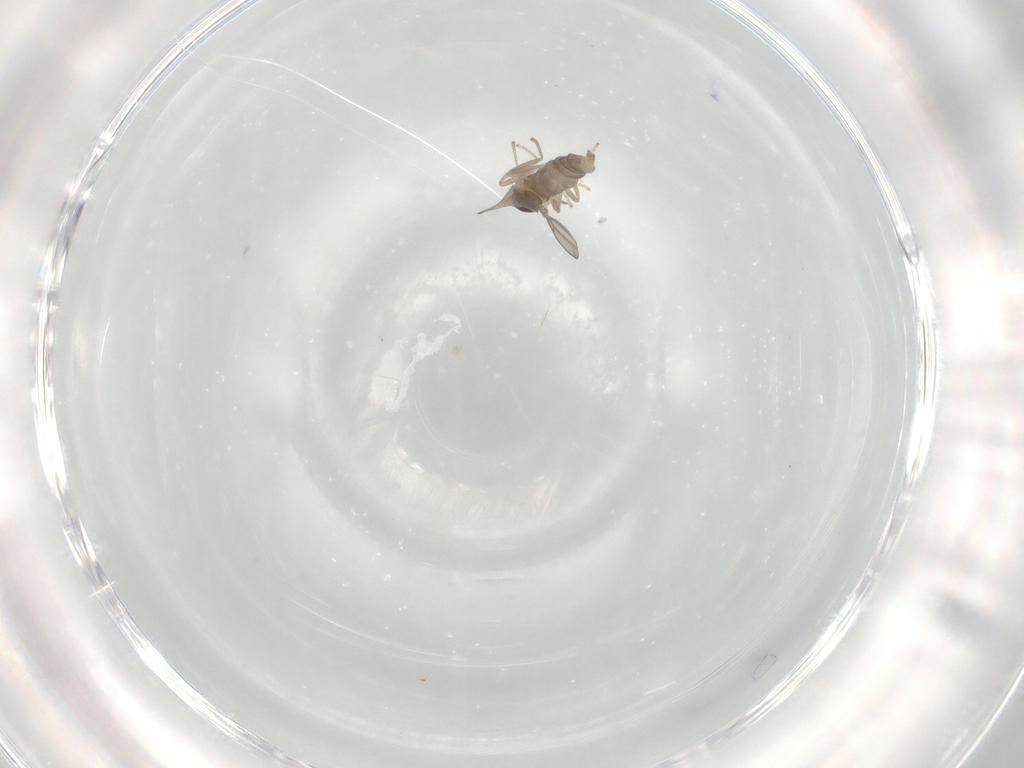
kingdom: Animalia
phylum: Arthropoda
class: Insecta
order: Diptera
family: Cecidomyiidae
